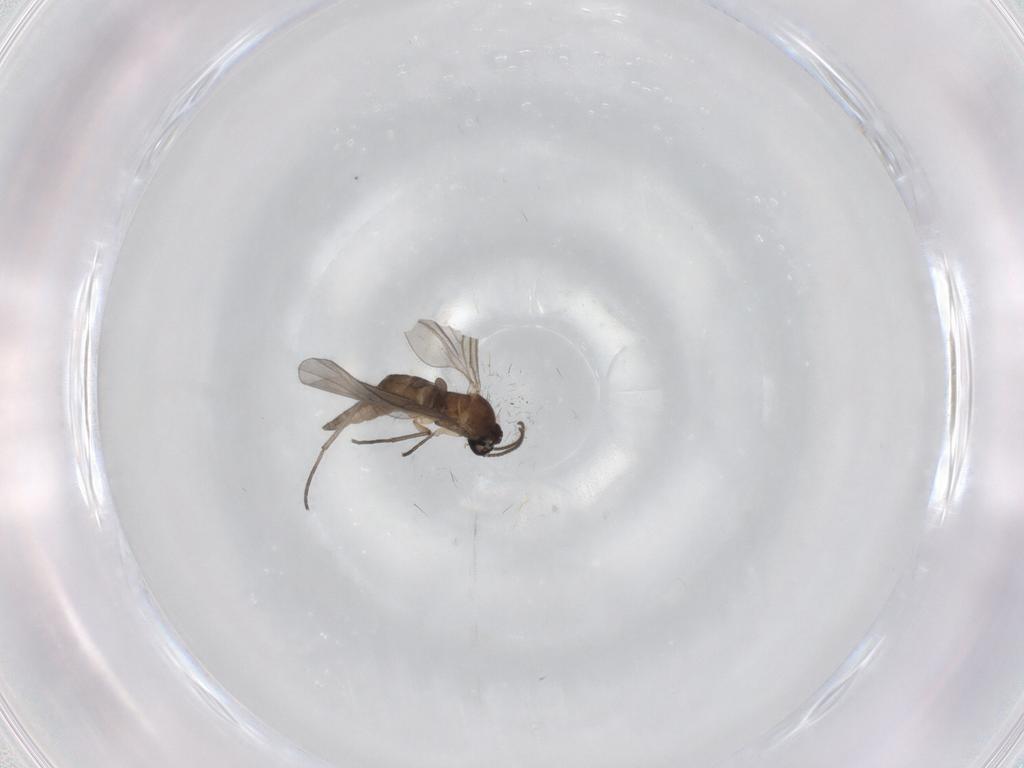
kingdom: Animalia
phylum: Arthropoda
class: Insecta
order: Diptera
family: Sciaridae
